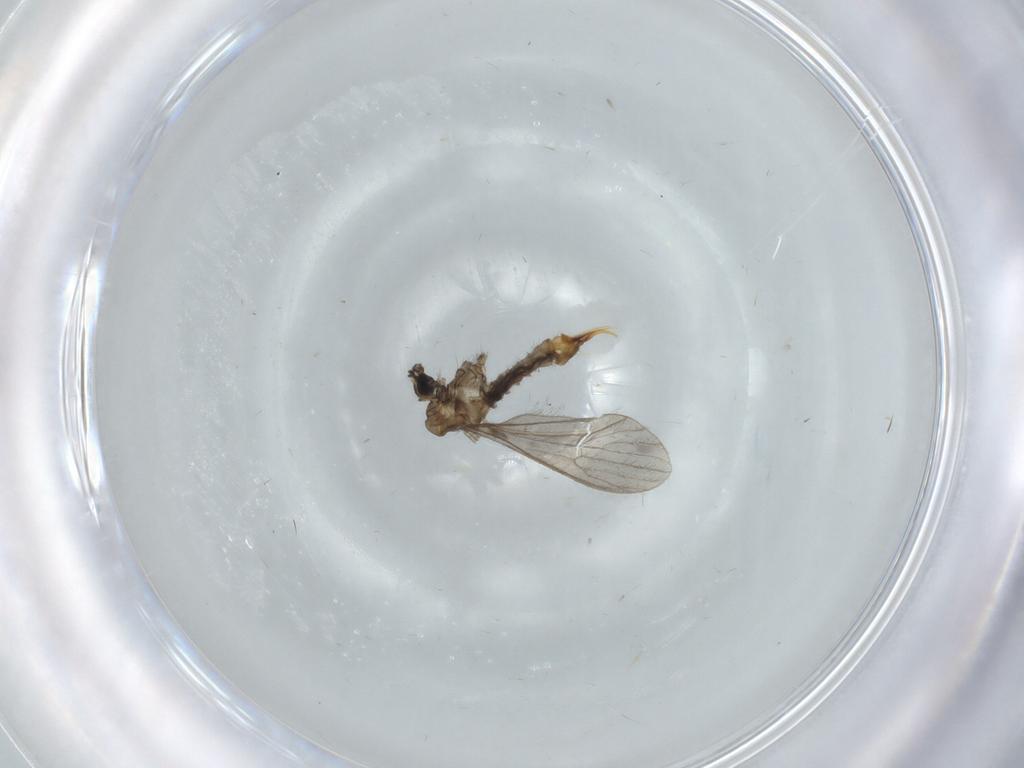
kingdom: Animalia
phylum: Arthropoda
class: Insecta
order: Diptera
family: Limoniidae
